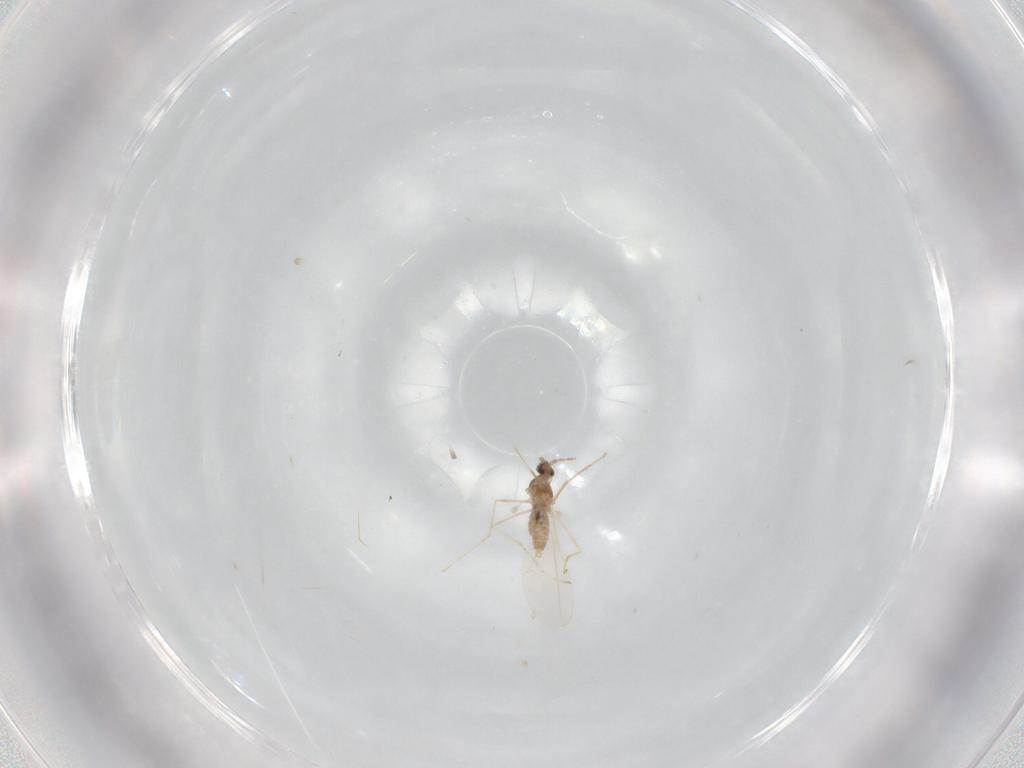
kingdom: Animalia
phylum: Arthropoda
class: Insecta
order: Diptera
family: Cecidomyiidae
